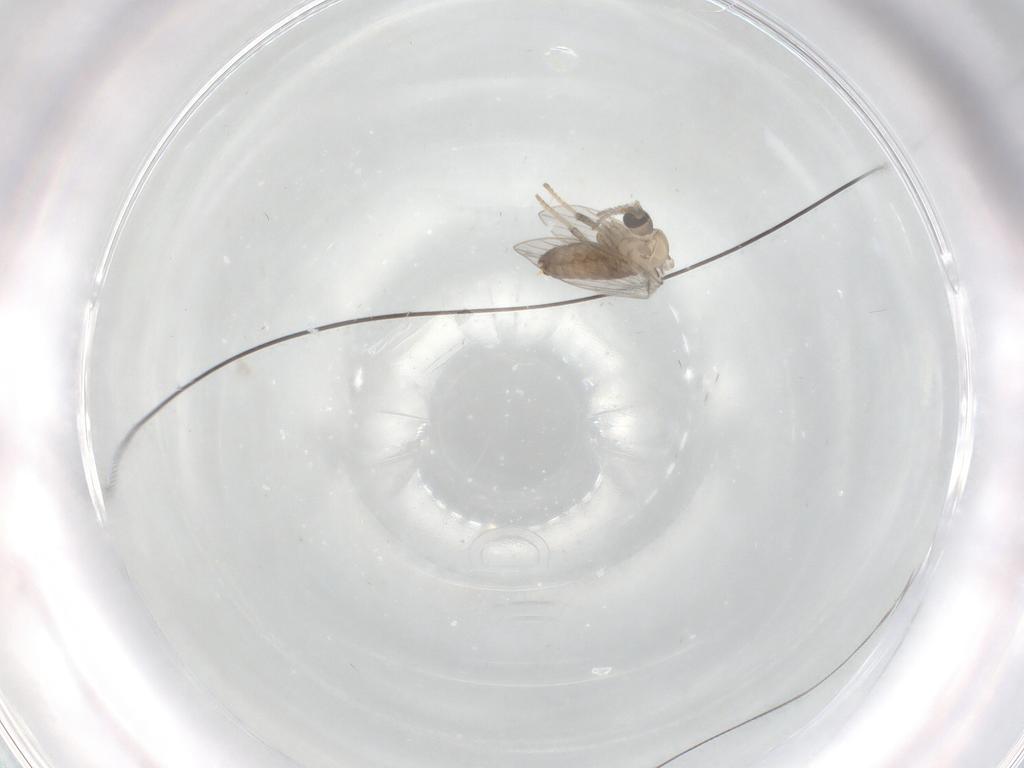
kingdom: Animalia
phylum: Arthropoda
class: Insecta
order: Diptera
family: Psychodidae
